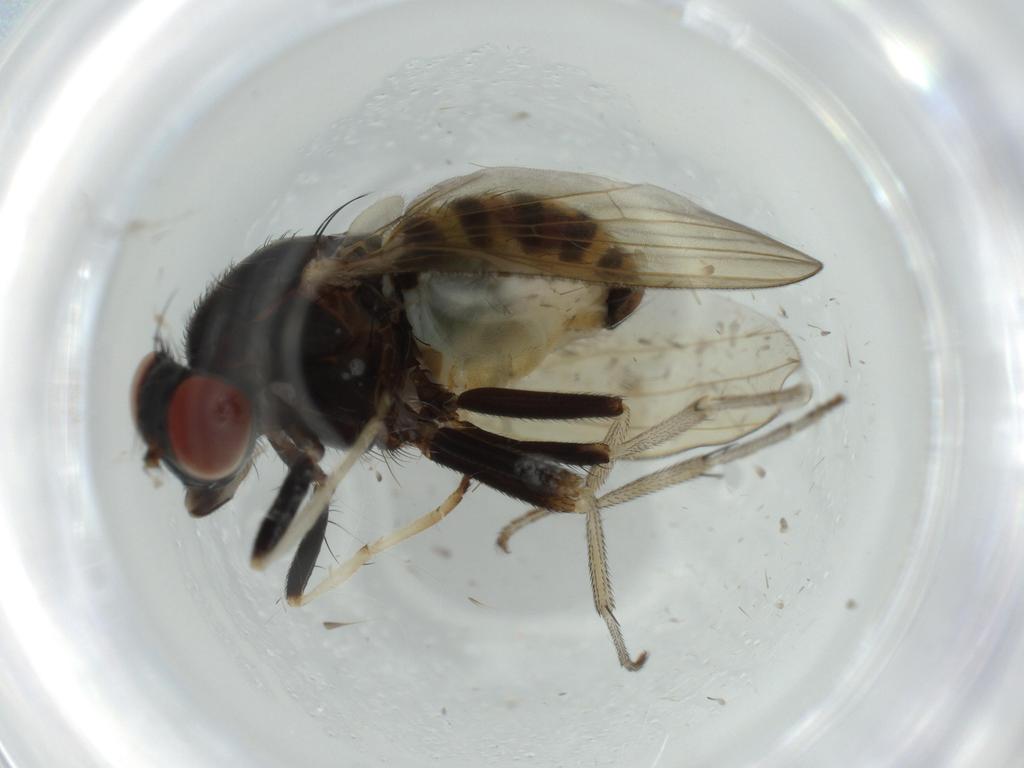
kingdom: Animalia
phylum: Arthropoda
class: Insecta
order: Diptera
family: Ceratopogonidae
